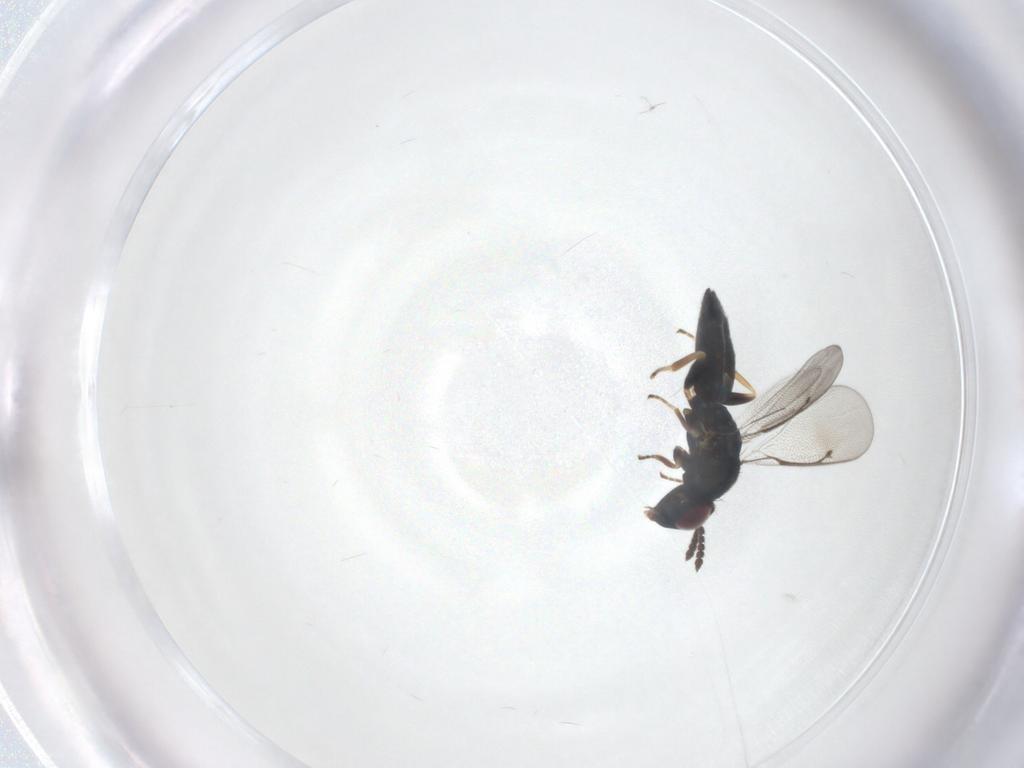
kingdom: Animalia
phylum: Arthropoda
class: Insecta
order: Hymenoptera
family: Eulophidae
